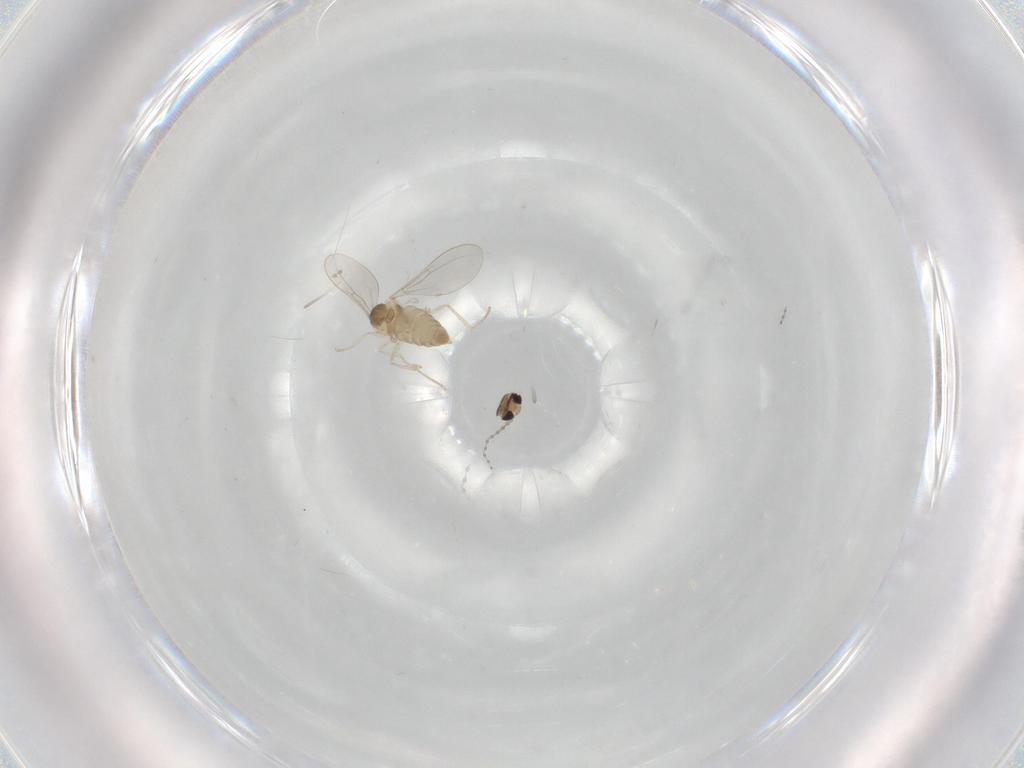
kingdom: Animalia
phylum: Arthropoda
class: Insecta
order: Diptera
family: Cecidomyiidae
